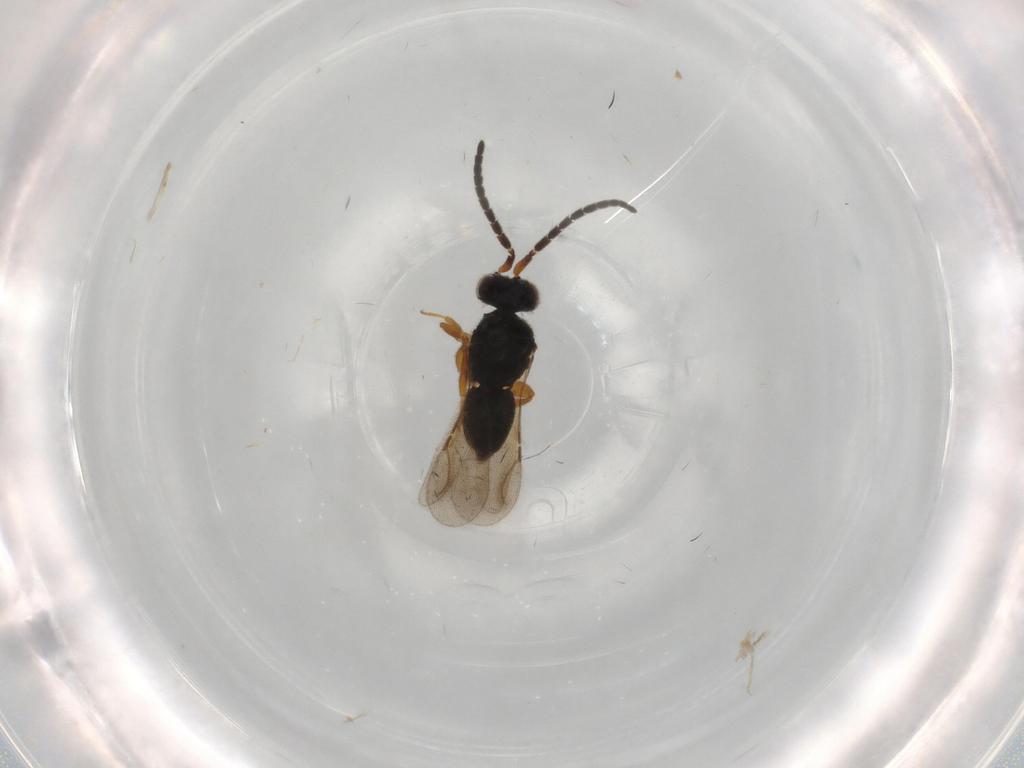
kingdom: Animalia
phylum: Arthropoda
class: Insecta
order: Hymenoptera
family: Ceraphronidae
